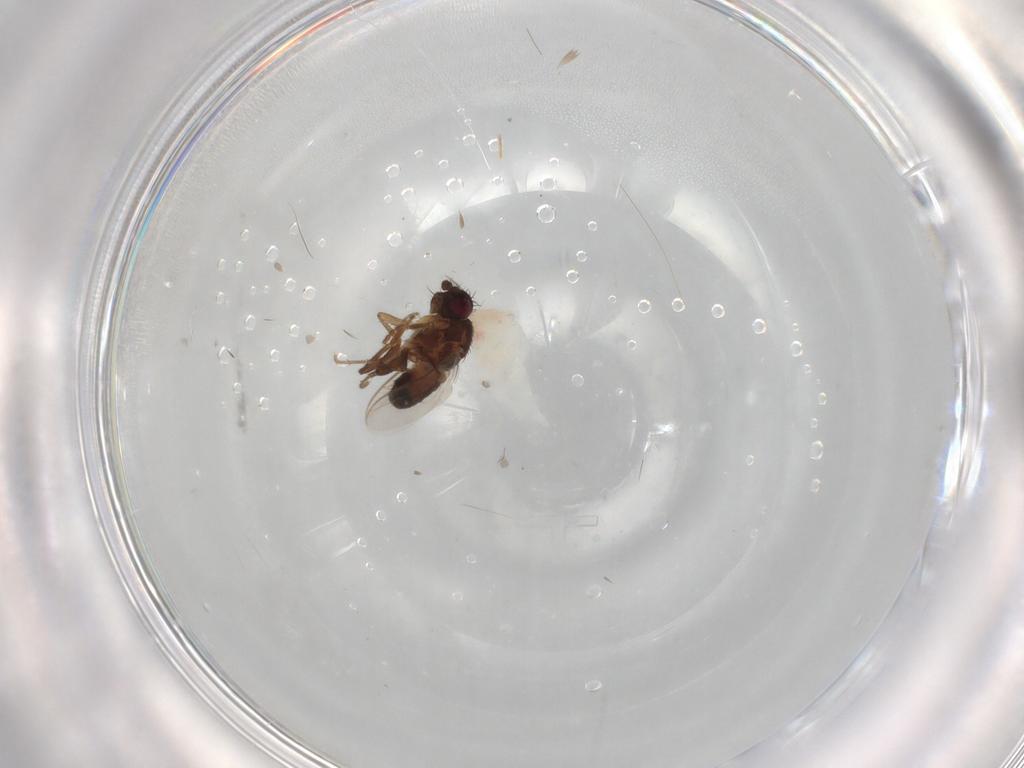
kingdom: Animalia
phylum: Arthropoda
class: Insecta
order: Diptera
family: Sphaeroceridae
